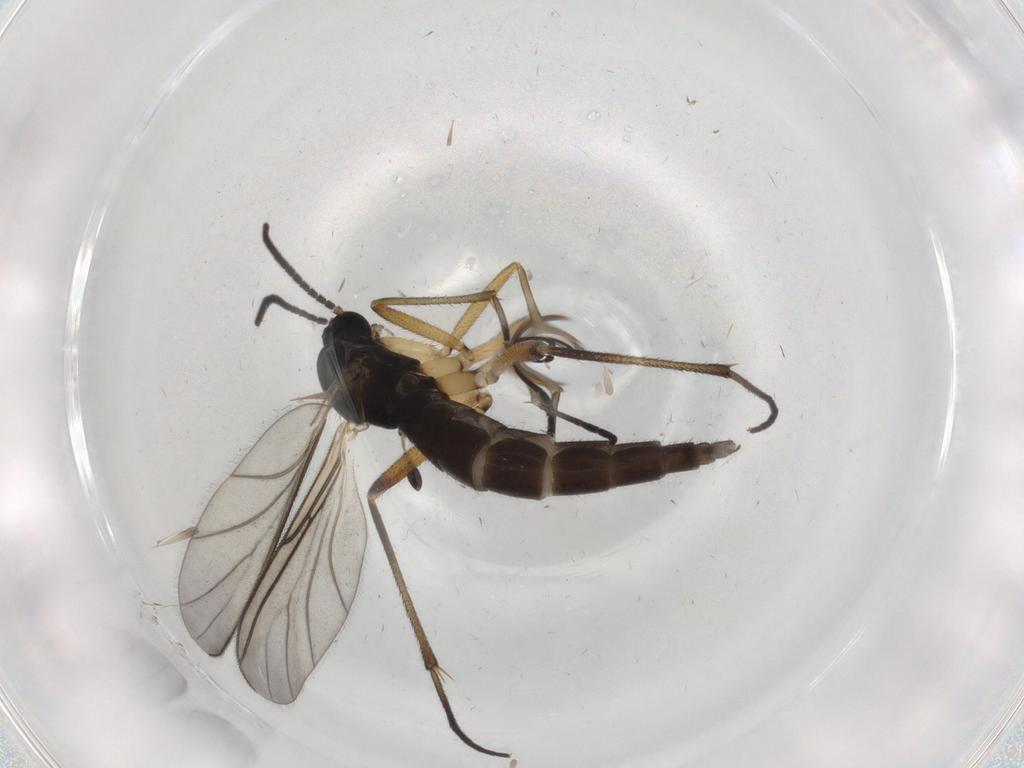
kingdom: Animalia
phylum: Arthropoda
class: Insecta
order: Diptera
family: Sciaridae
